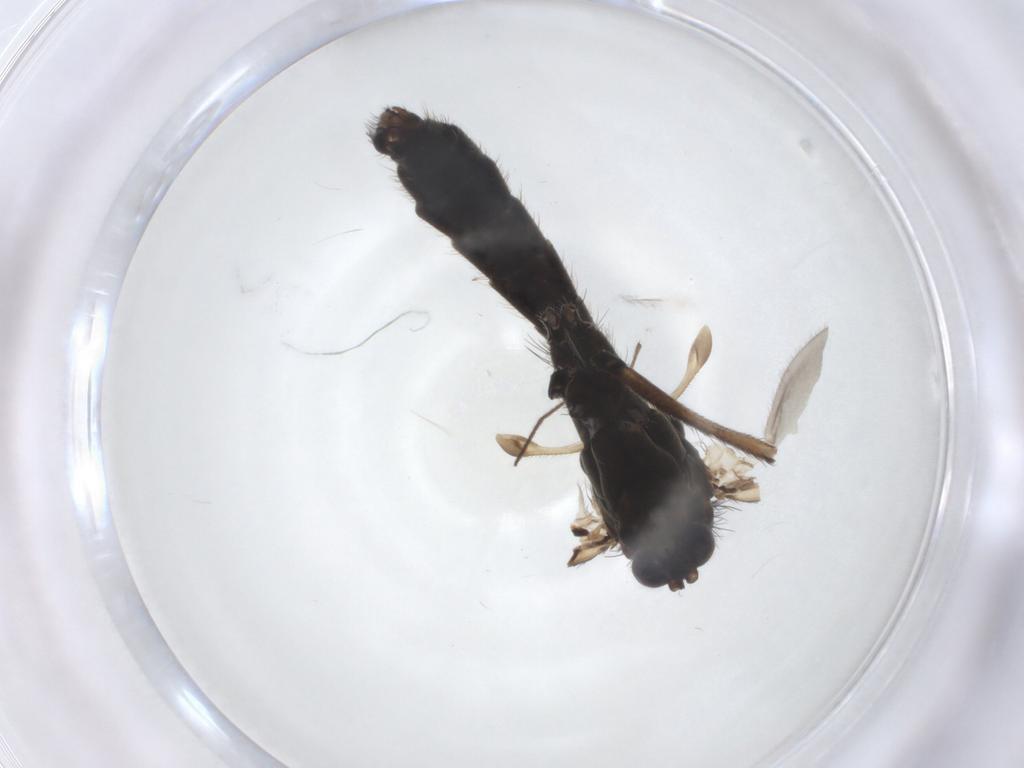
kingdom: Animalia
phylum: Arthropoda
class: Insecta
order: Diptera
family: Mycetophilidae
